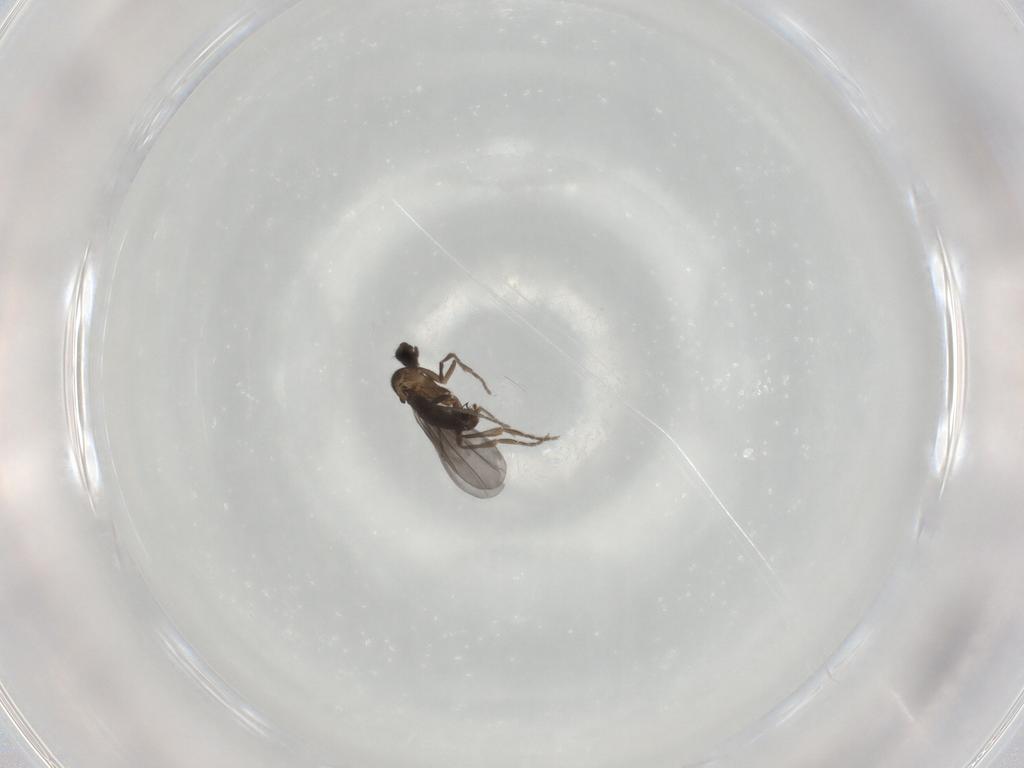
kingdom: Animalia
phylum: Arthropoda
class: Insecta
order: Diptera
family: Phoridae
